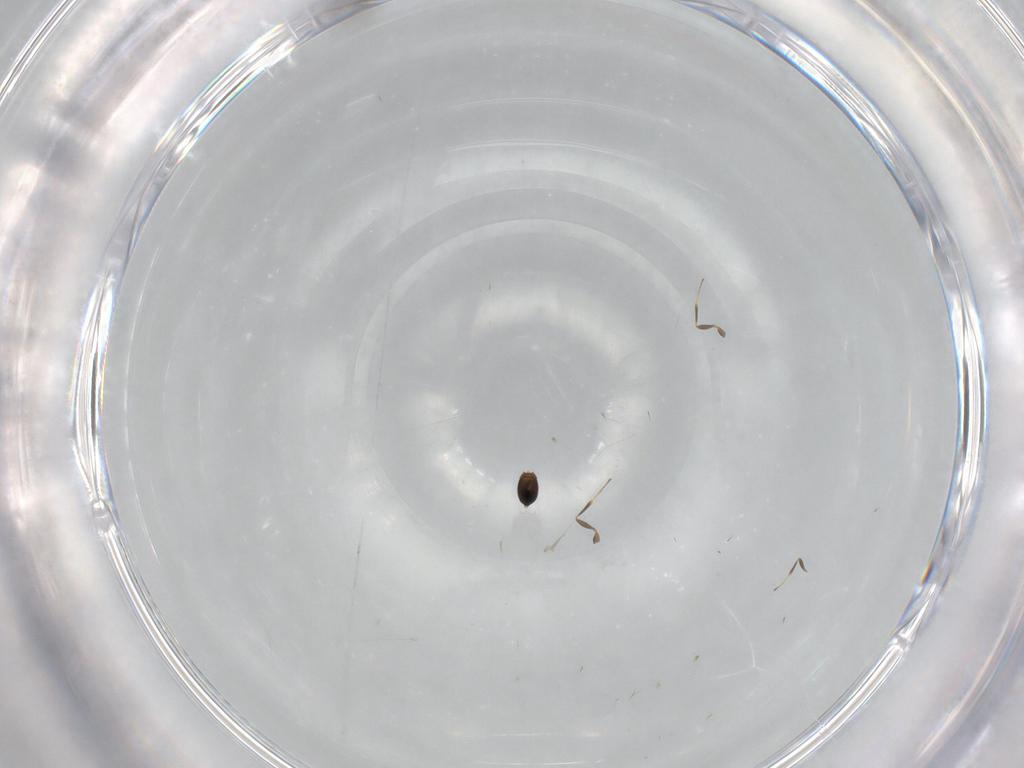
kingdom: Animalia
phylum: Arthropoda
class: Insecta
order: Hymenoptera
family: Scelionidae
